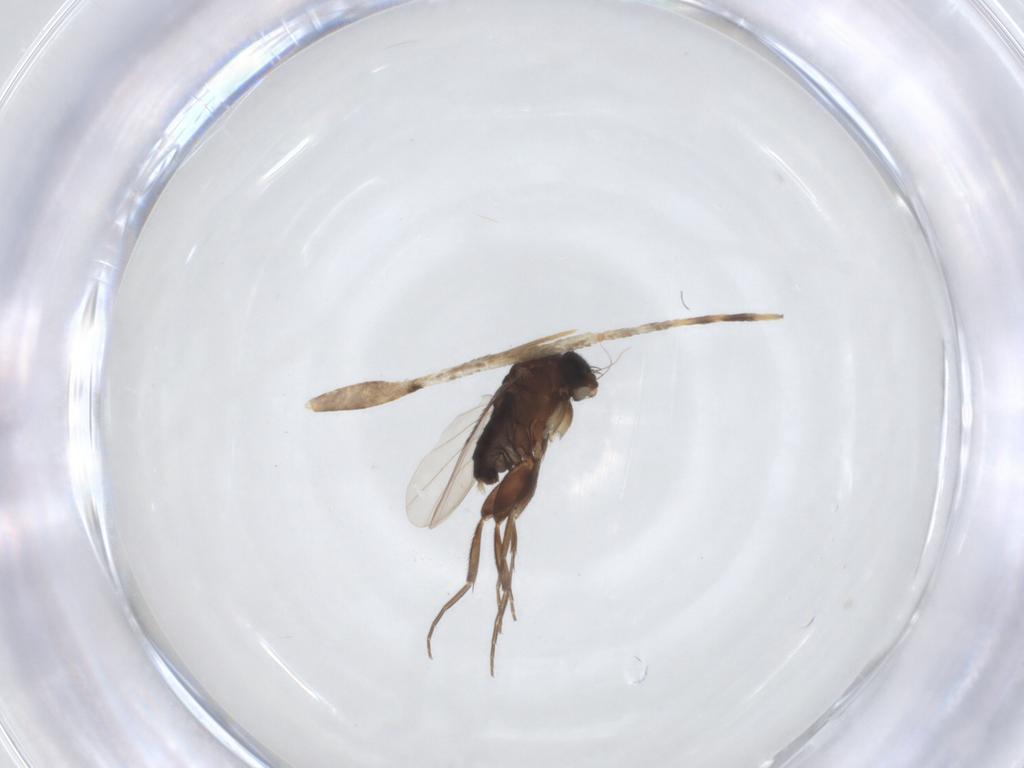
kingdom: Animalia
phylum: Arthropoda
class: Insecta
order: Diptera
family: Phoridae
